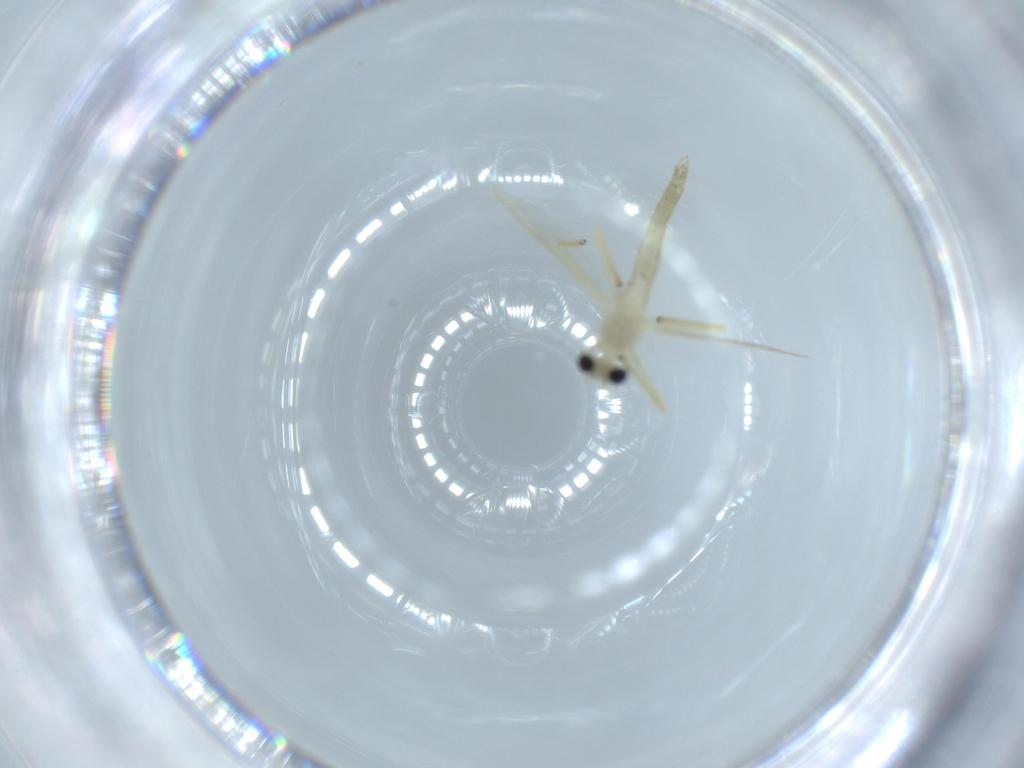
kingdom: Animalia
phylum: Arthropoda
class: Insecta
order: Diptera
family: Chironomidae
